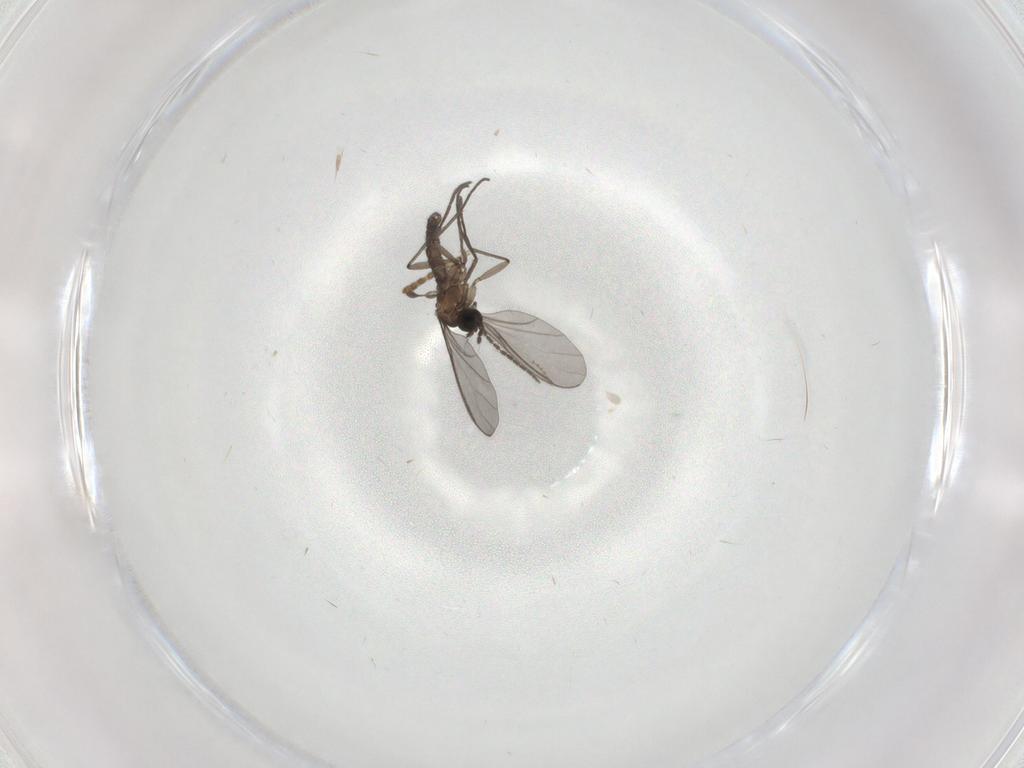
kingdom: Animalia
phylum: Arthropoda
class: Insecta
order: Diptera
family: Sciaridae
